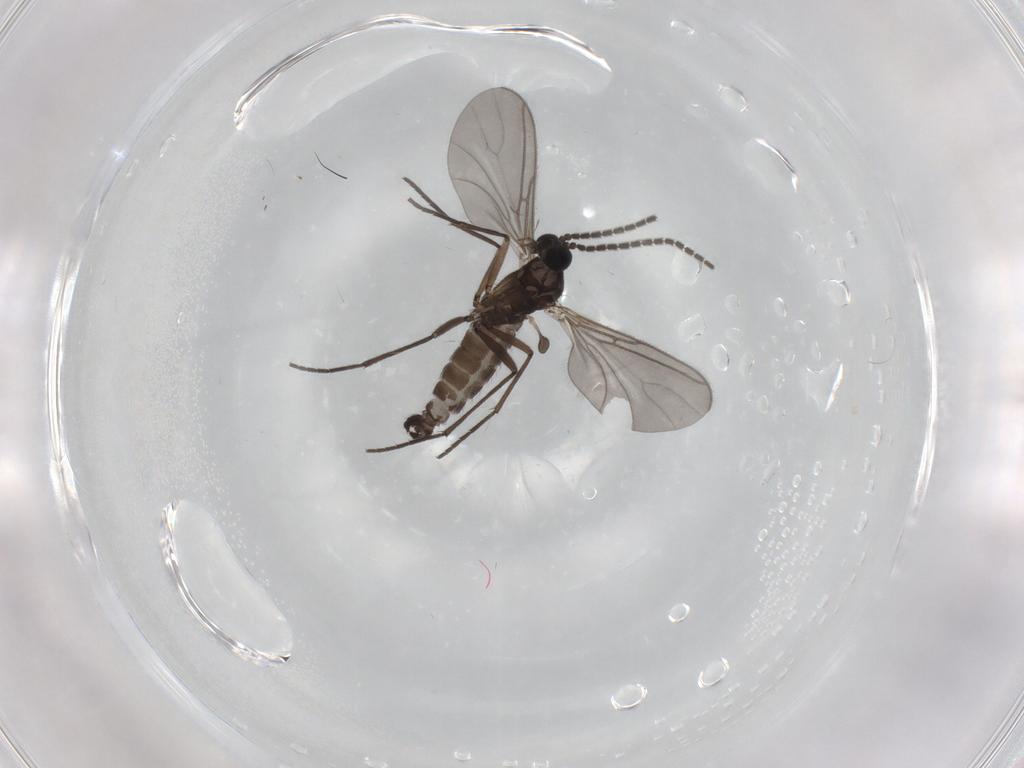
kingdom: Animalia
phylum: Arthropoda
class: Insecta
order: Diptera
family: Sciaridae
